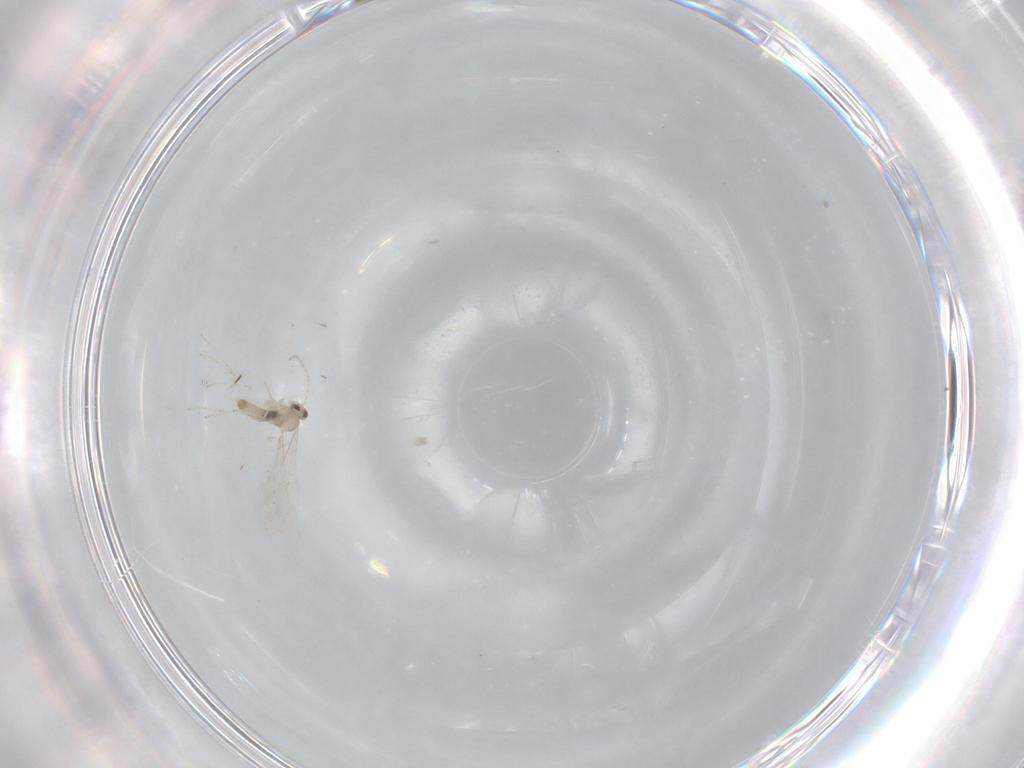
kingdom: Animalia
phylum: Arthropoda
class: Insecta
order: Diptera
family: Cecidomyiidae
